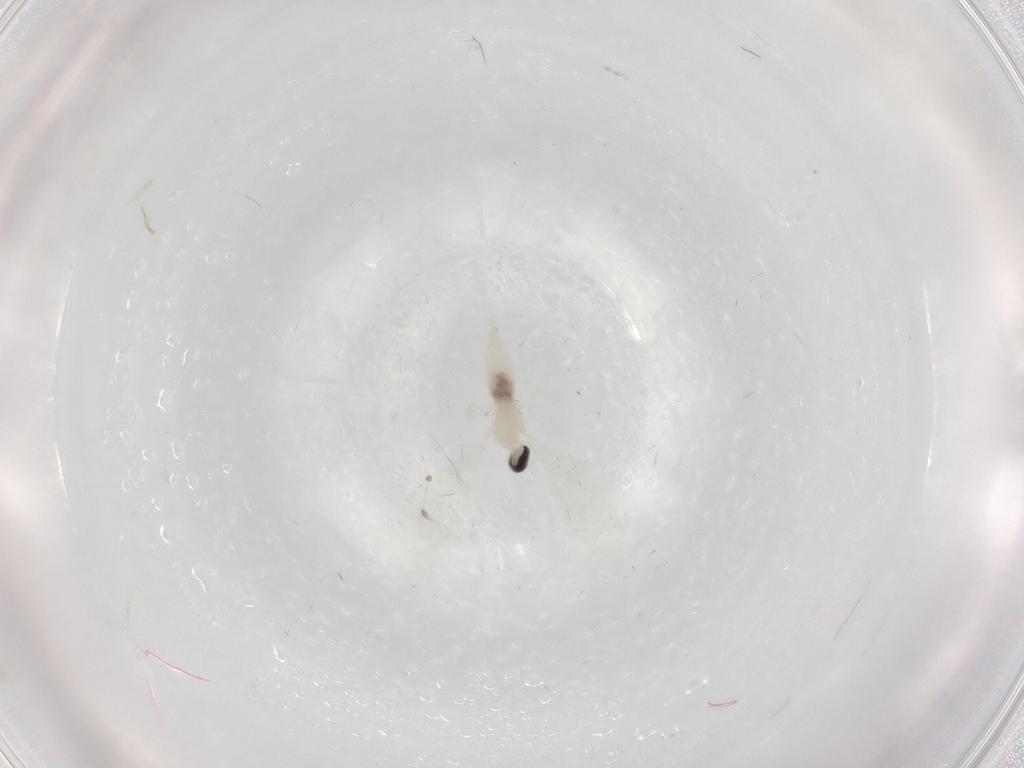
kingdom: Animalia
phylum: Arthropoda
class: Insecta
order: Diptera
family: Cecidomyiidae
